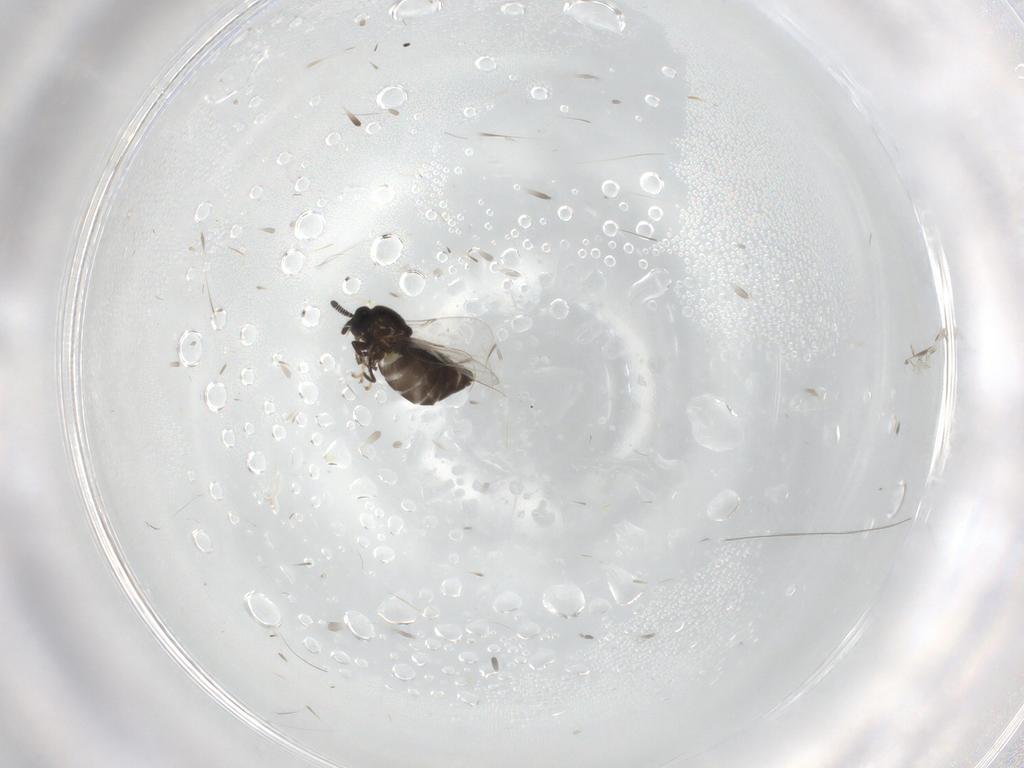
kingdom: Animalia
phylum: Arthropoda
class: Insecta
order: Diptera
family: Scatopsidae
